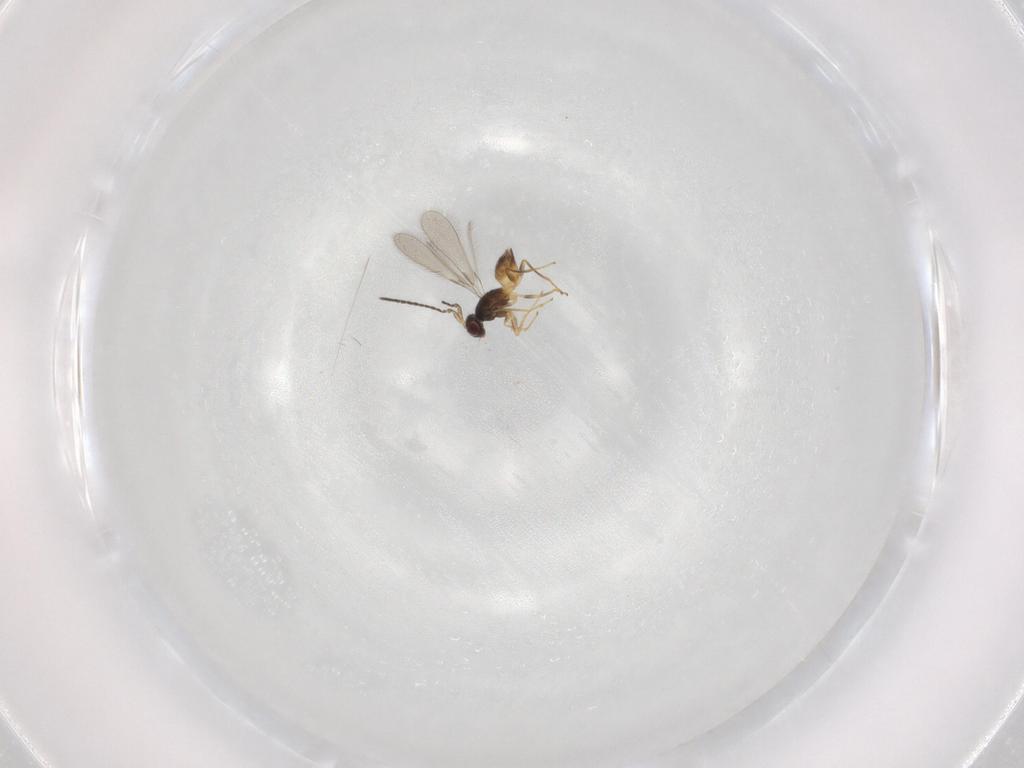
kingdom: Animalia
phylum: Arthropoda
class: Insecta
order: Hymenoptera
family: Mymaridae
